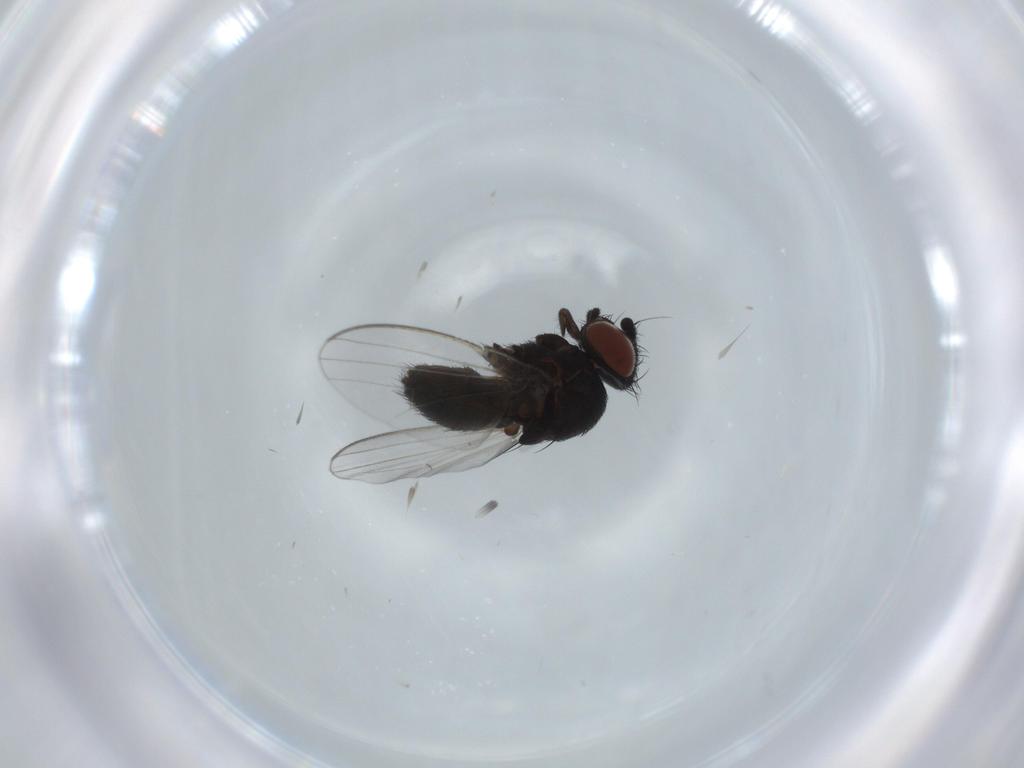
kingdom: Animalia
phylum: Arthropoda
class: Insecta
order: Diptera
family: Milichiidae
